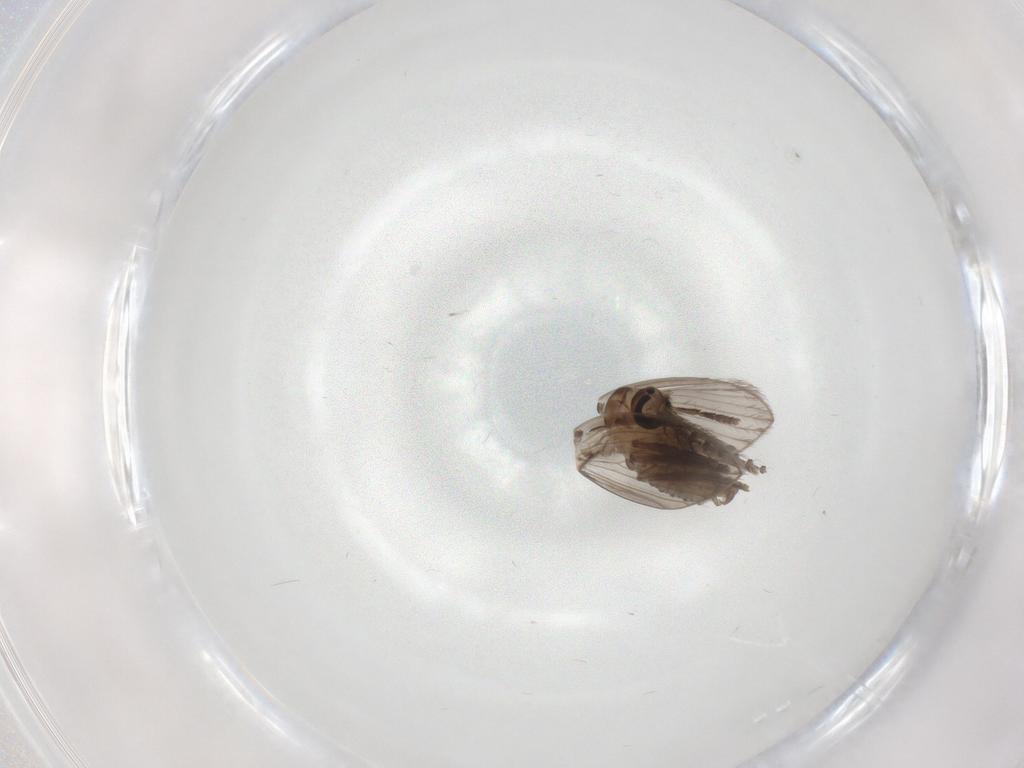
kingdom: Animalia
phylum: Arthropoda
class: Insecta
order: Diptera
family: Psychodidae
